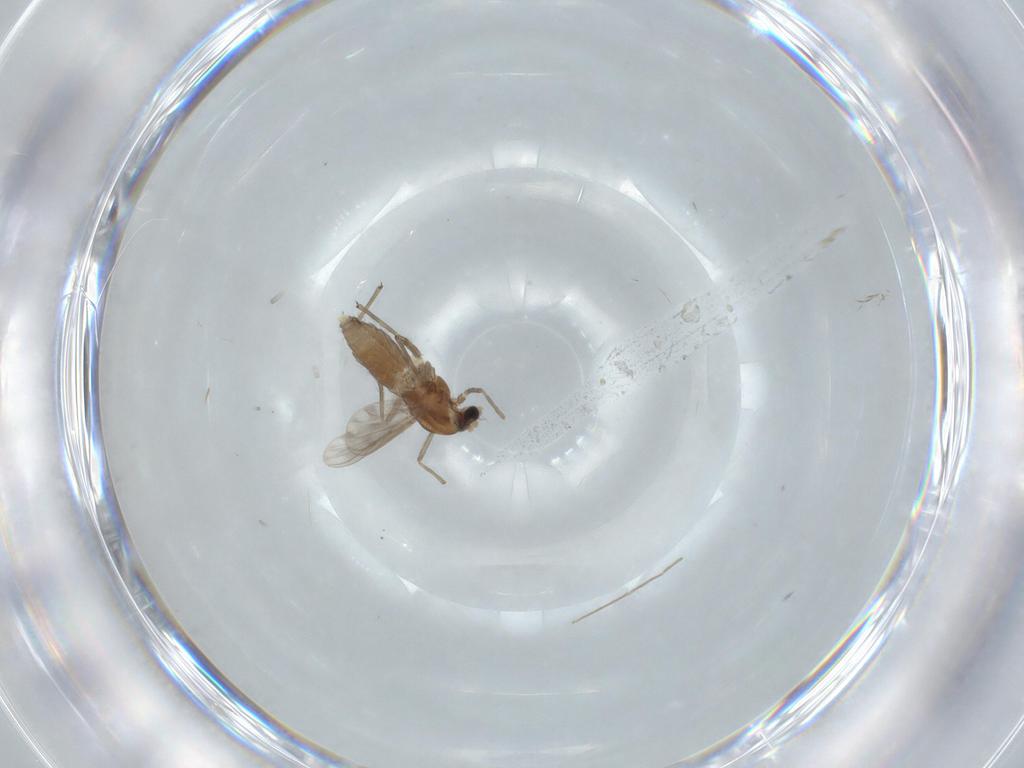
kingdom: Animalia
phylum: Arthropoda
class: Insecta
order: Diptera
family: Chironomidae
